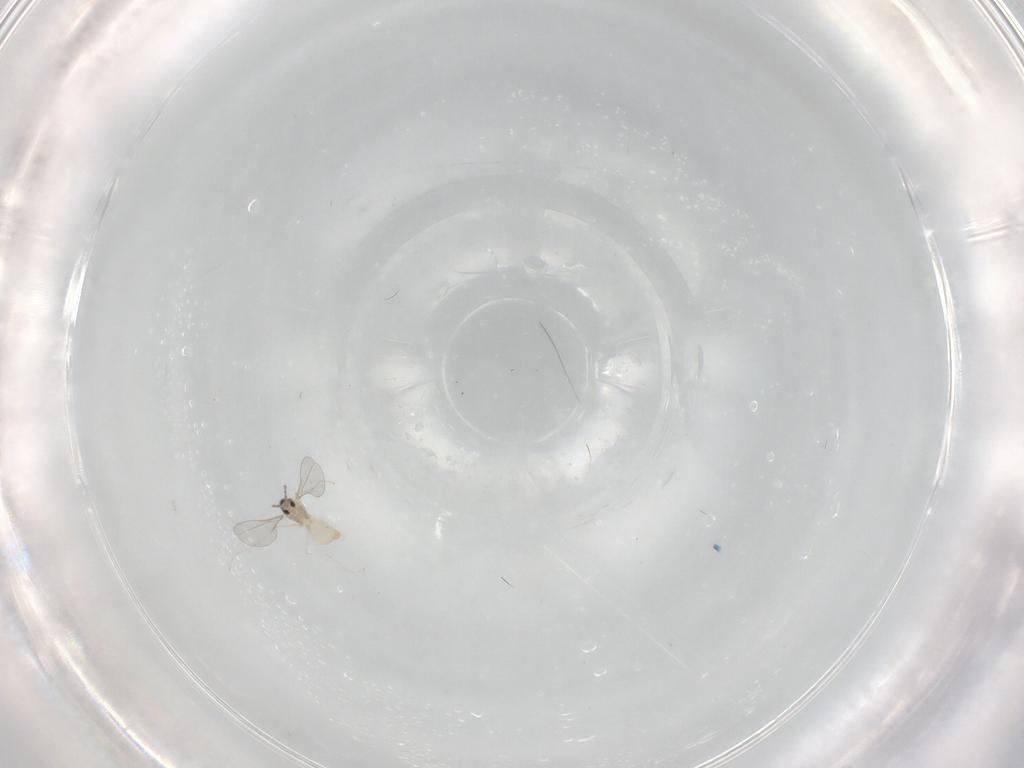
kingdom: Animalia
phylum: Arthropoda
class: Insecta
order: Diptera
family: Cecidomyiidae
